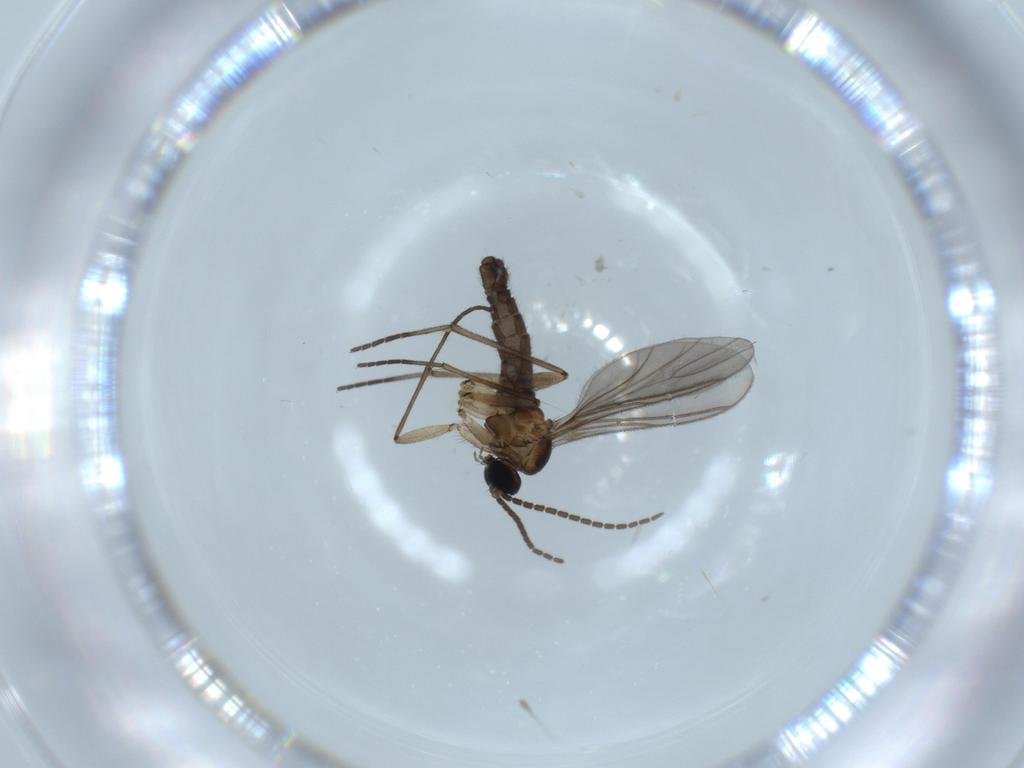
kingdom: Animalia
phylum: Arthropoda
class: Insecta
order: Diptera
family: Sciaridae
